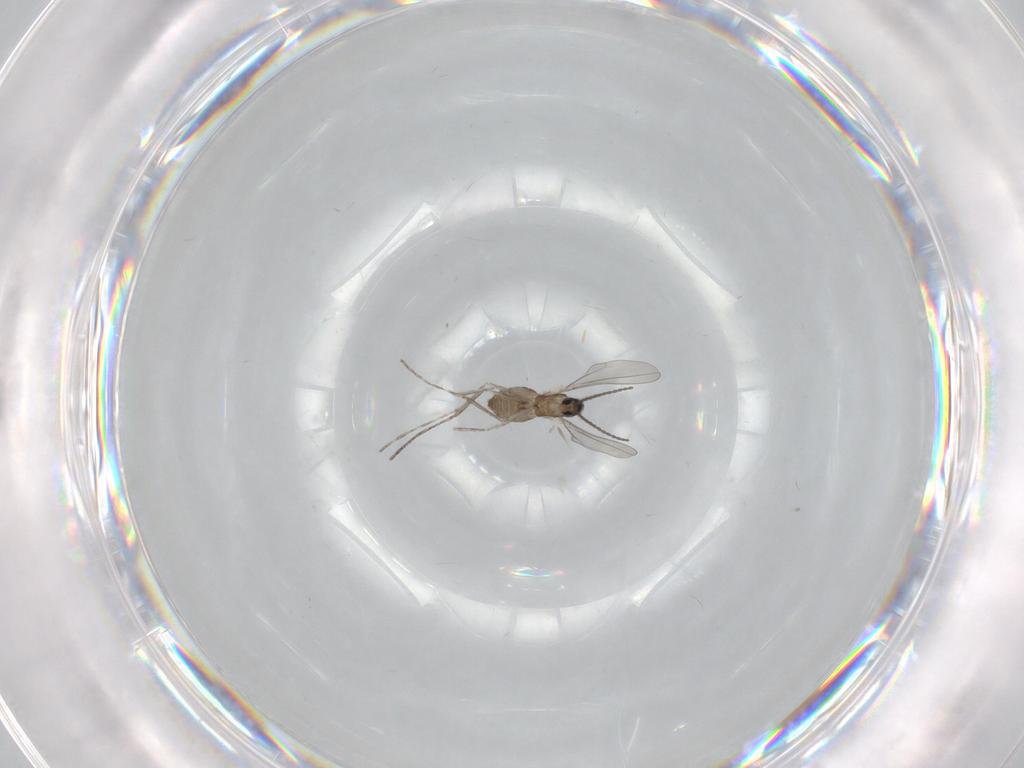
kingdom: Animalia
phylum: Arthropoda
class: Insecta
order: Diptera
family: Cecidomyiidae
